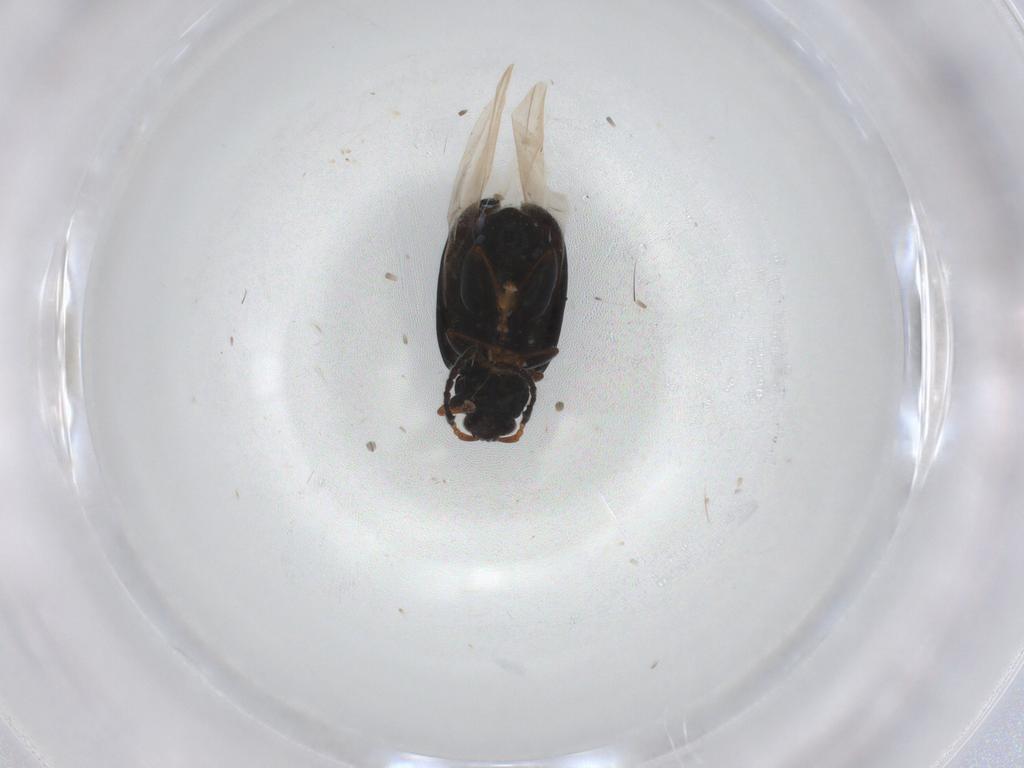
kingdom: Animalia
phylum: Arthropoda
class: Insecta
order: Coleoptera
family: Chrysomelidae
